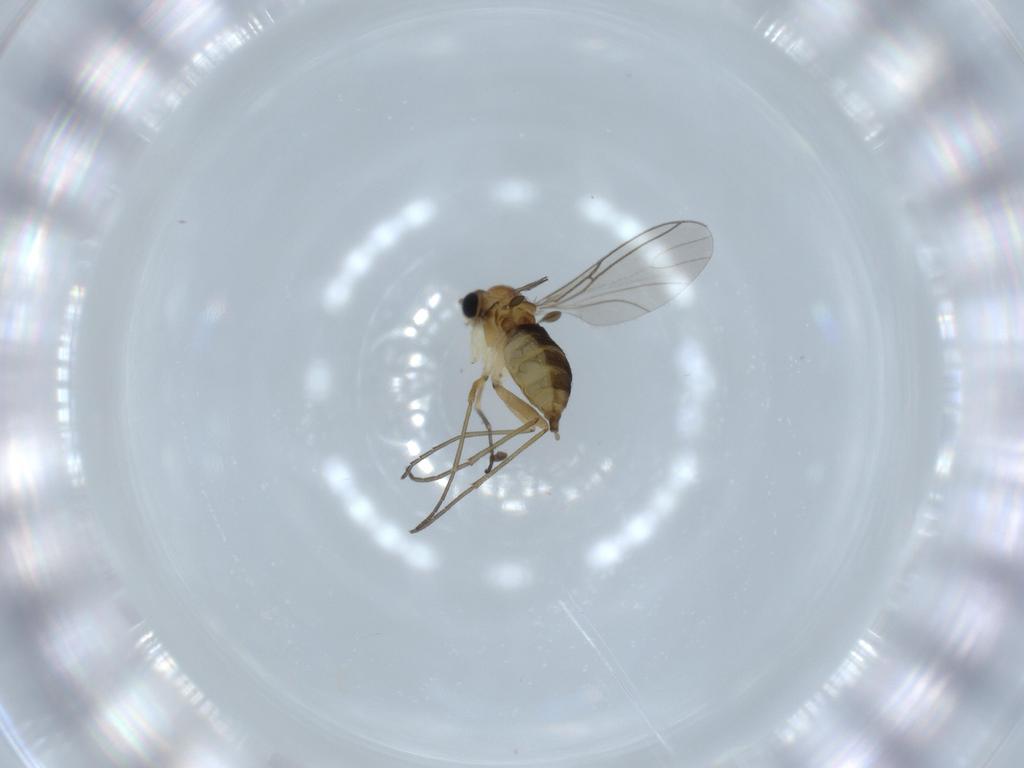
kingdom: Animalia
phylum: Arthropoda
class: Insecta
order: Diptera
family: Sciaridae
